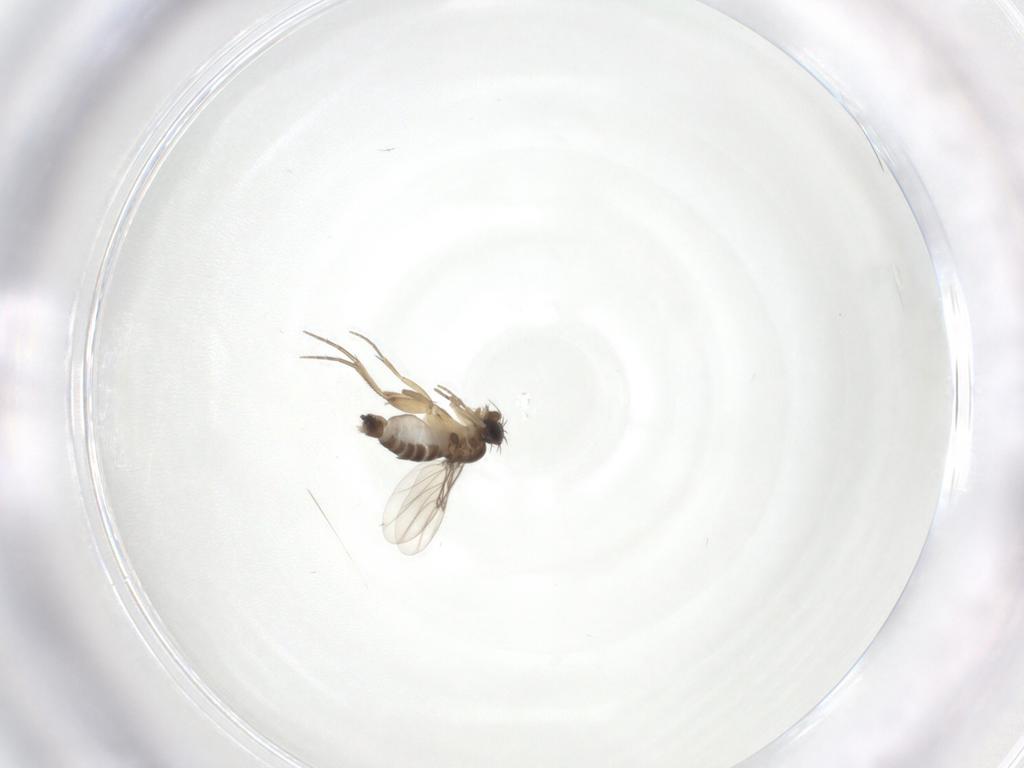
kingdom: Animalia
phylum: Arthropoda
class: Insecta
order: Diptera
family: Phoridae
